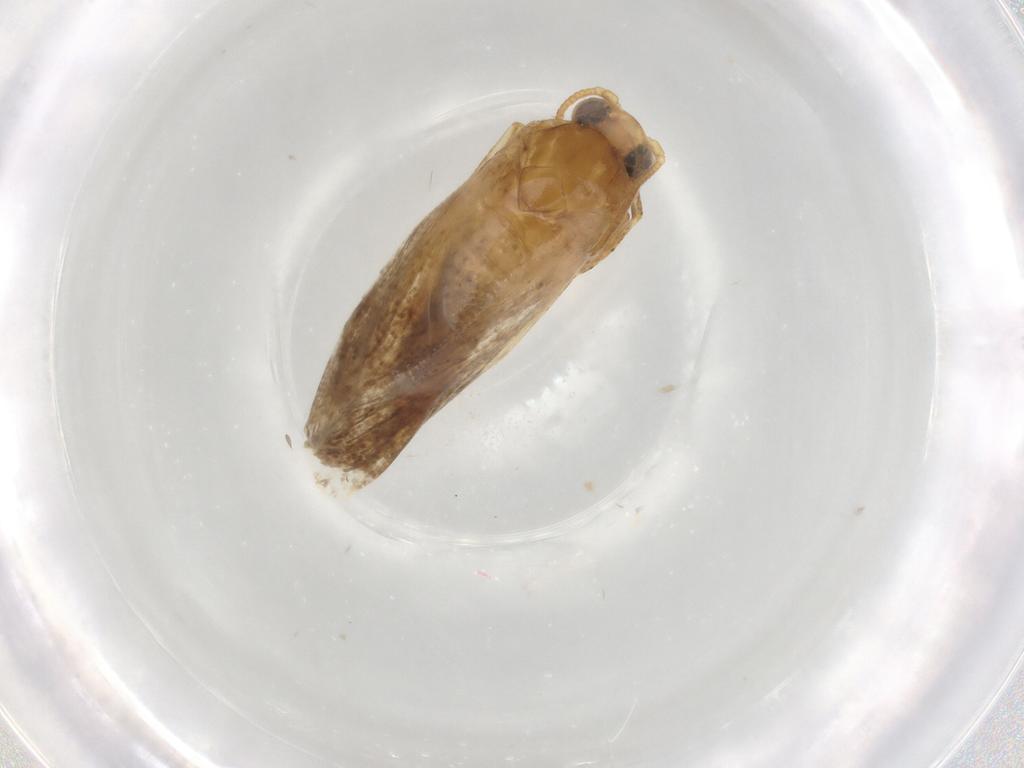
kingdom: Animalia
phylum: Arthropoda
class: Insecta
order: Lepidoptera
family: Tortricidae
